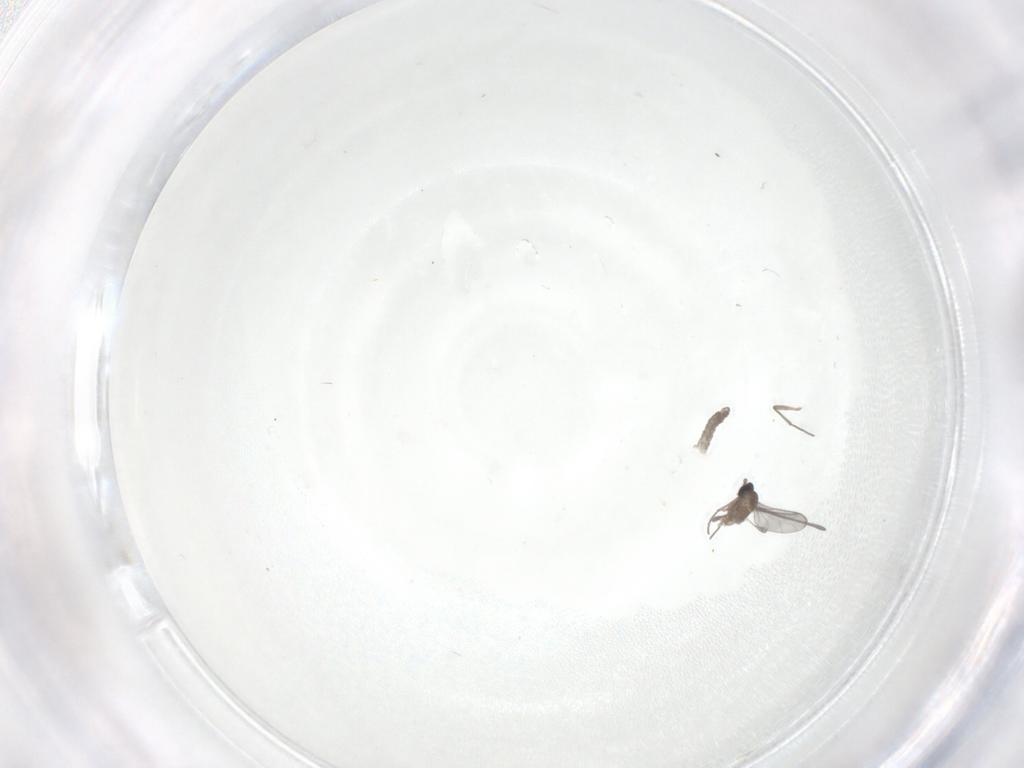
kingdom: Animalia
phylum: Arthropoda
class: Insecta
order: Diptera
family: Sciaridae
